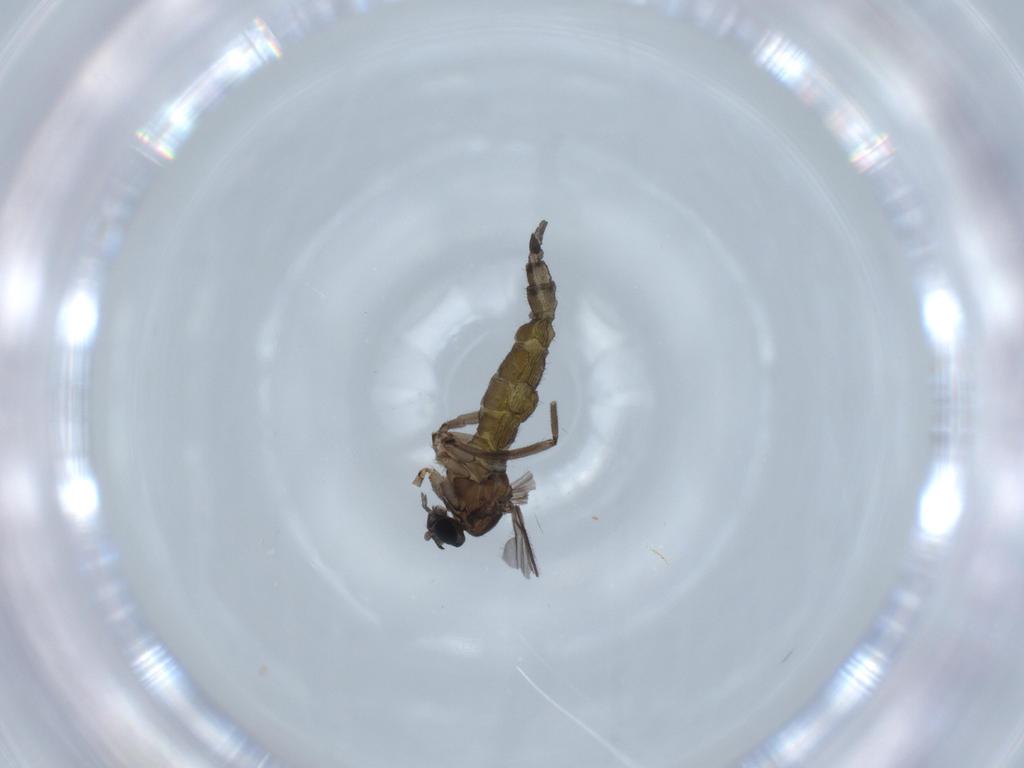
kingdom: Animalia
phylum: Arthropoda
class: Insecta
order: Diptera
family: Sciaridae
